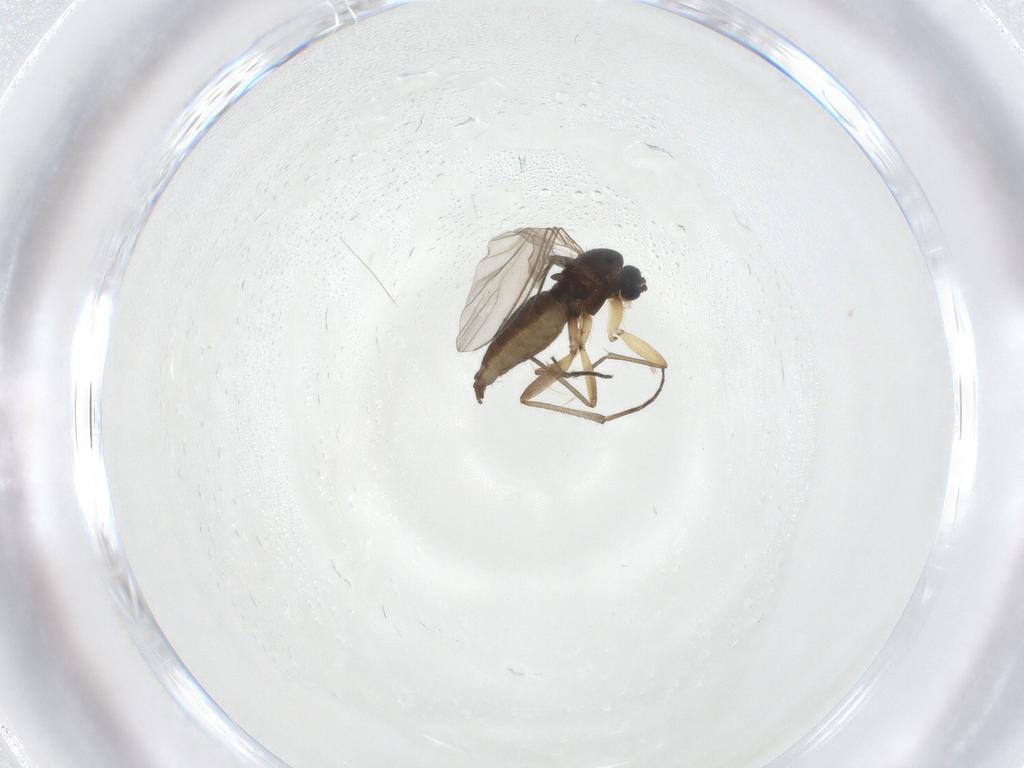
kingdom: Animalia
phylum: Arthropoda
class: Insecta
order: Diptera
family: Sciaridae
